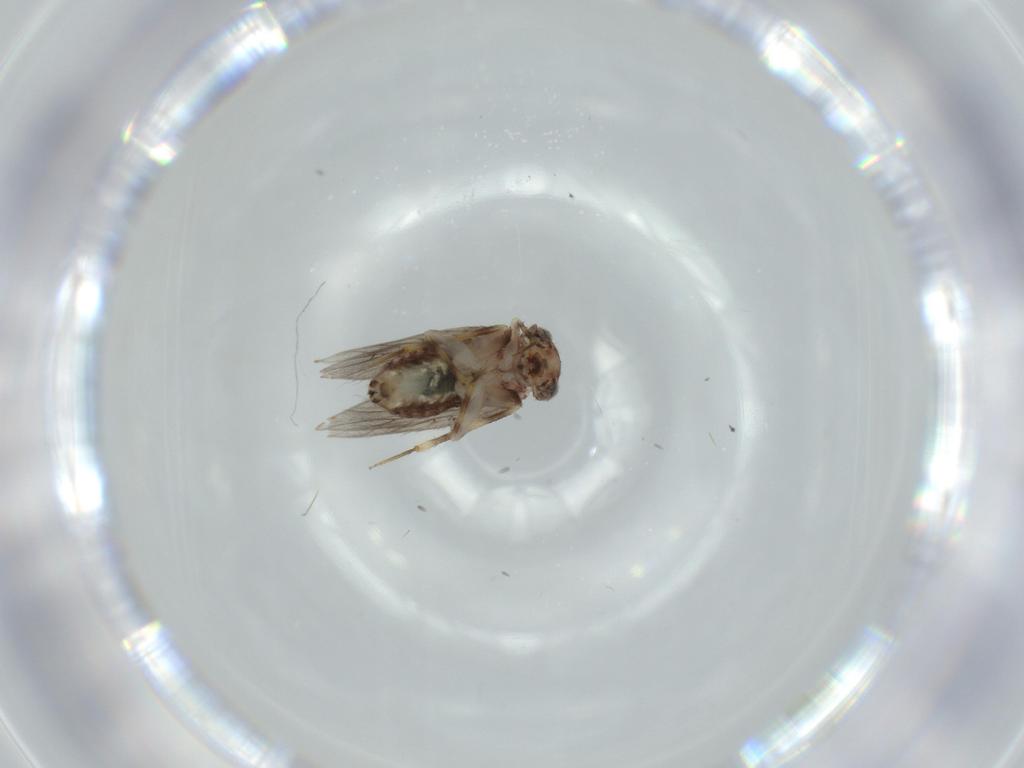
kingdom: Animalia
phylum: Arthropoda
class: Insecta
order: Psocodea
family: Lepidopsocidae
